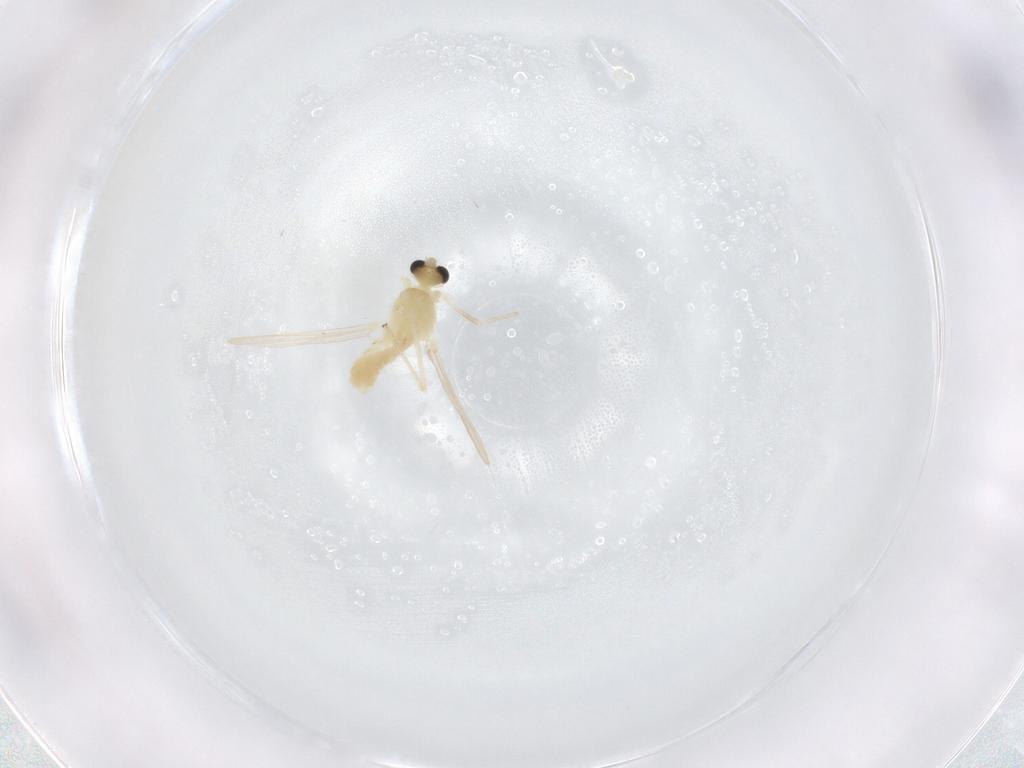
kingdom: Animalia
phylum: Arthropoda
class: Insecta
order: Diptera
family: Chironomidae
